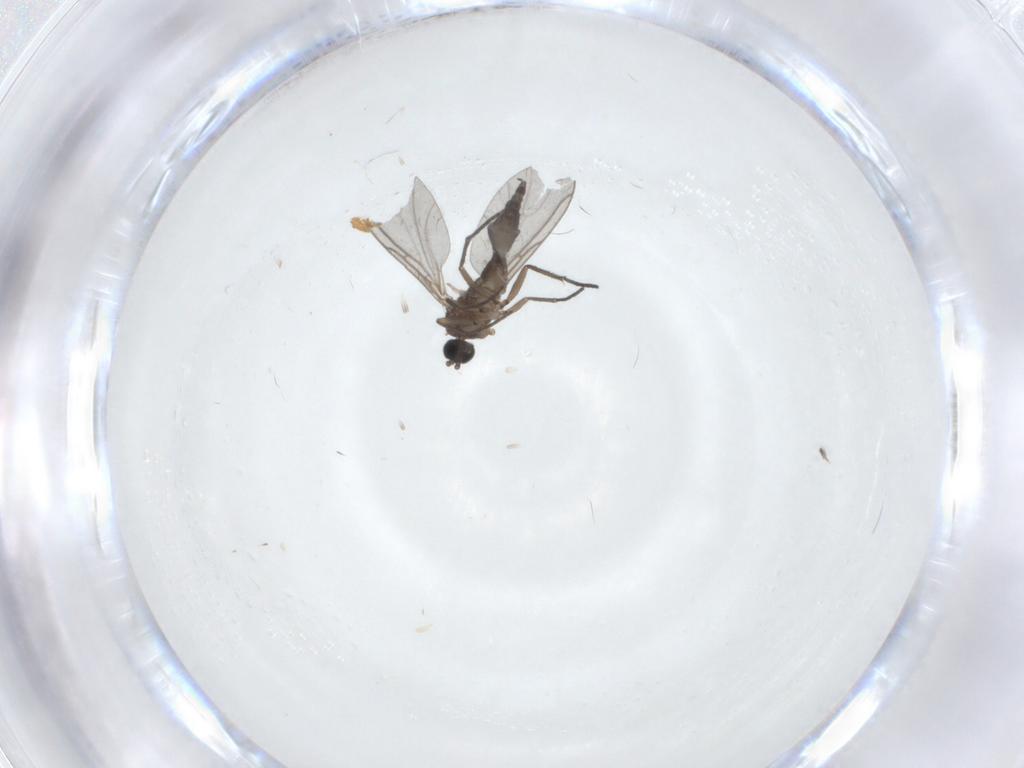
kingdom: Animalia
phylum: Arthropoda
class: Insecta
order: Diptera
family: Sciaridae
